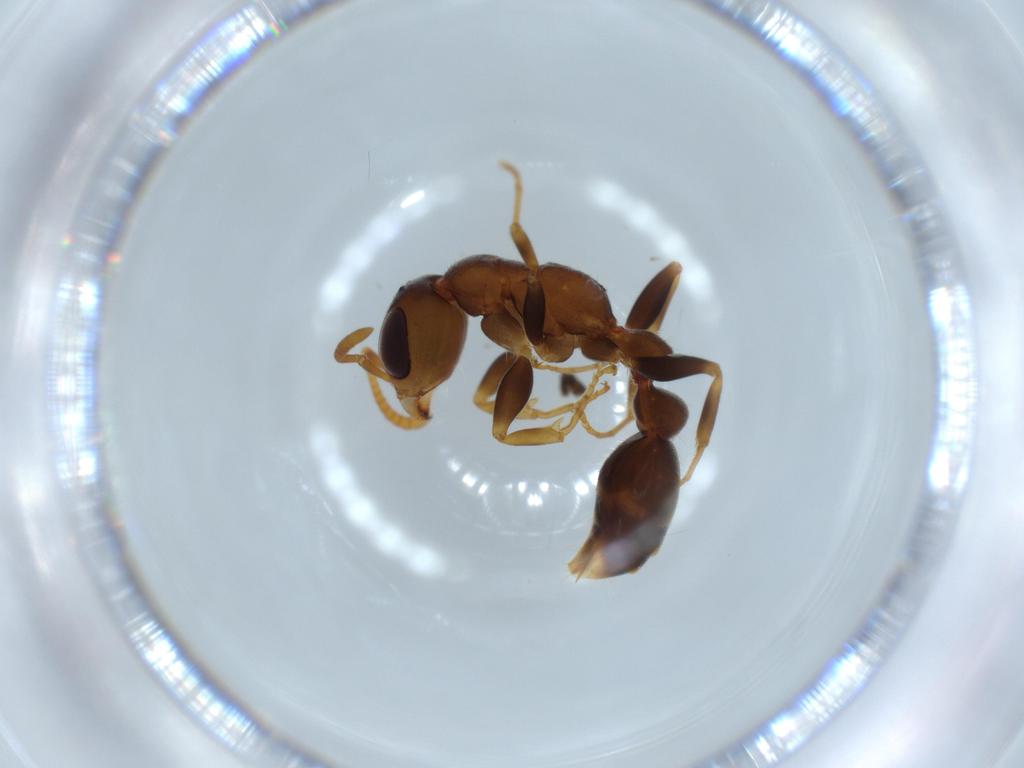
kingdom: Animalia
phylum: Arthropoda
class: Insecta
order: Hymenoptera
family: Formicidae
